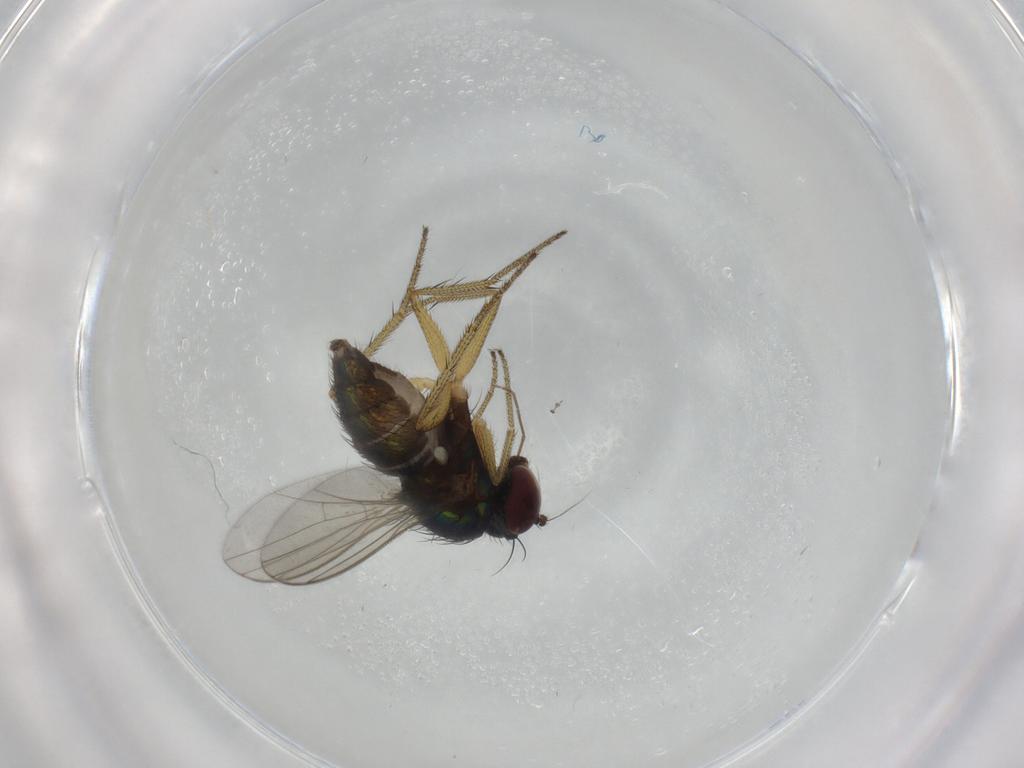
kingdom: Animalia
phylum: Arthropoda
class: Insecta
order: Diptera
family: Dolichopodidae
